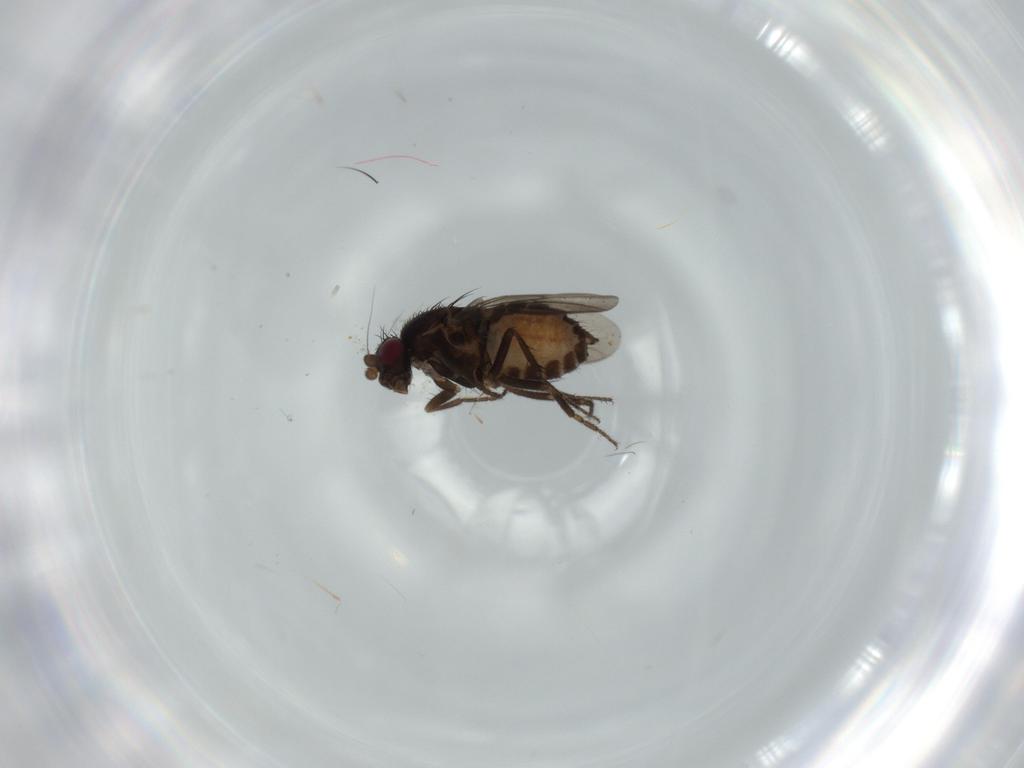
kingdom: Animalia
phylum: Arthropoda
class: Insecta
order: Diptera
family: Sphaeroceridae
